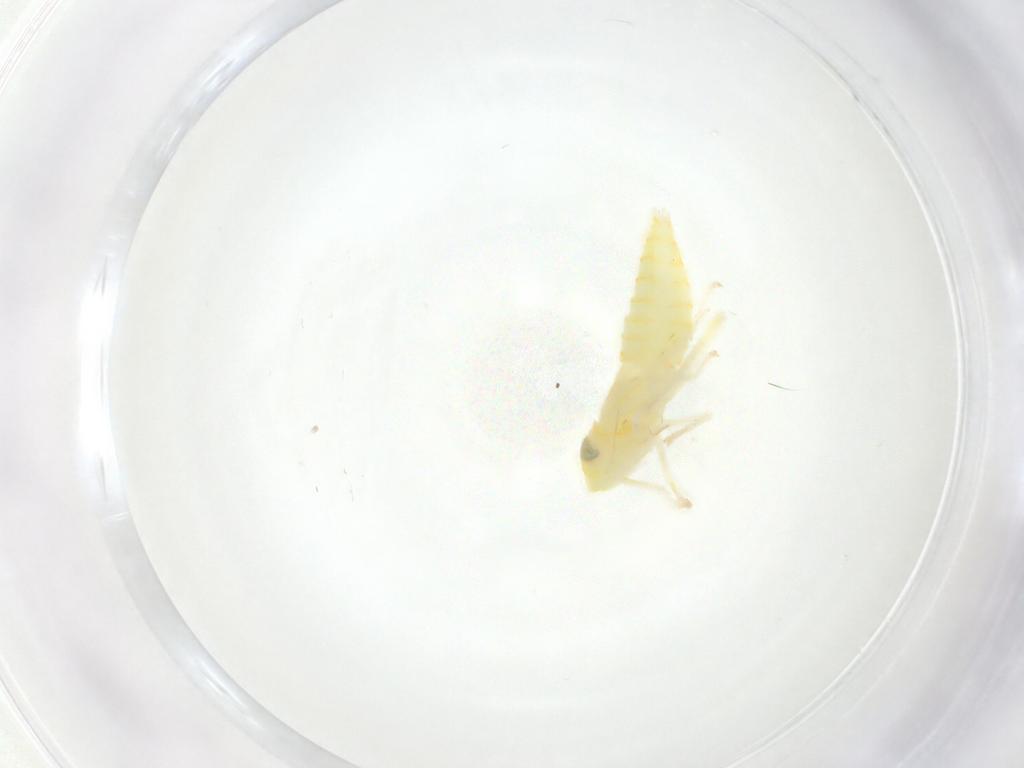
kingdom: Animalia
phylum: Arthropoda
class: Insecta
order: Hemiptera
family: Cicadellidae
